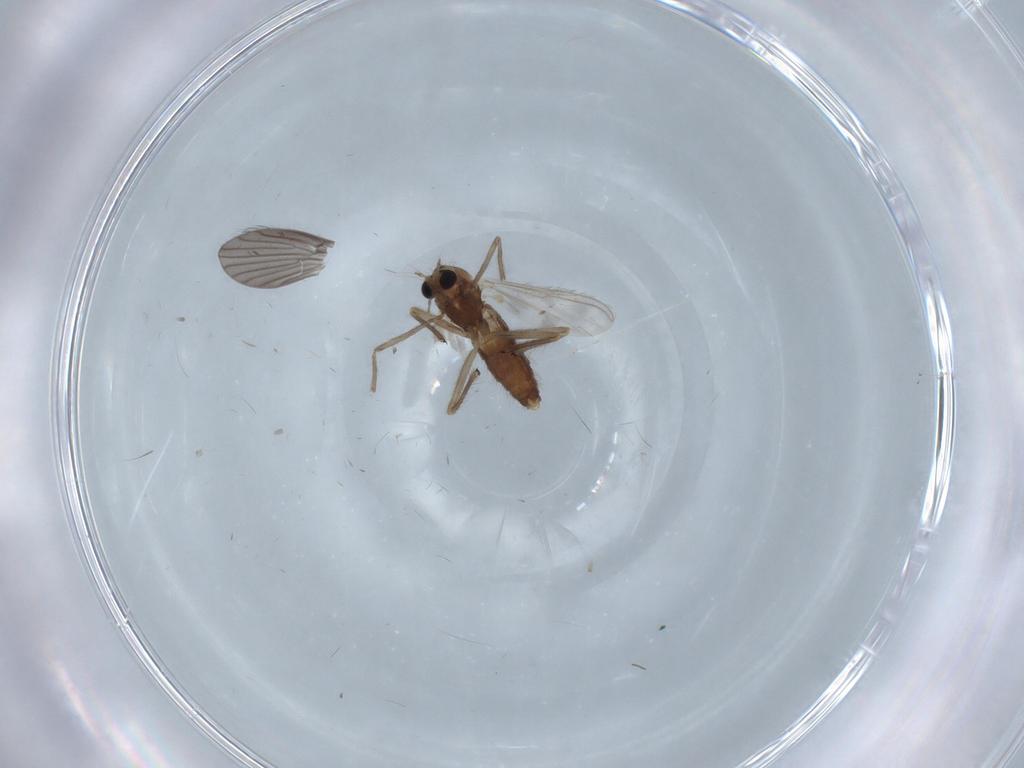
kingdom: Animalia
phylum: Arthropoda
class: Insecta
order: Diptera
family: Chironomidae
